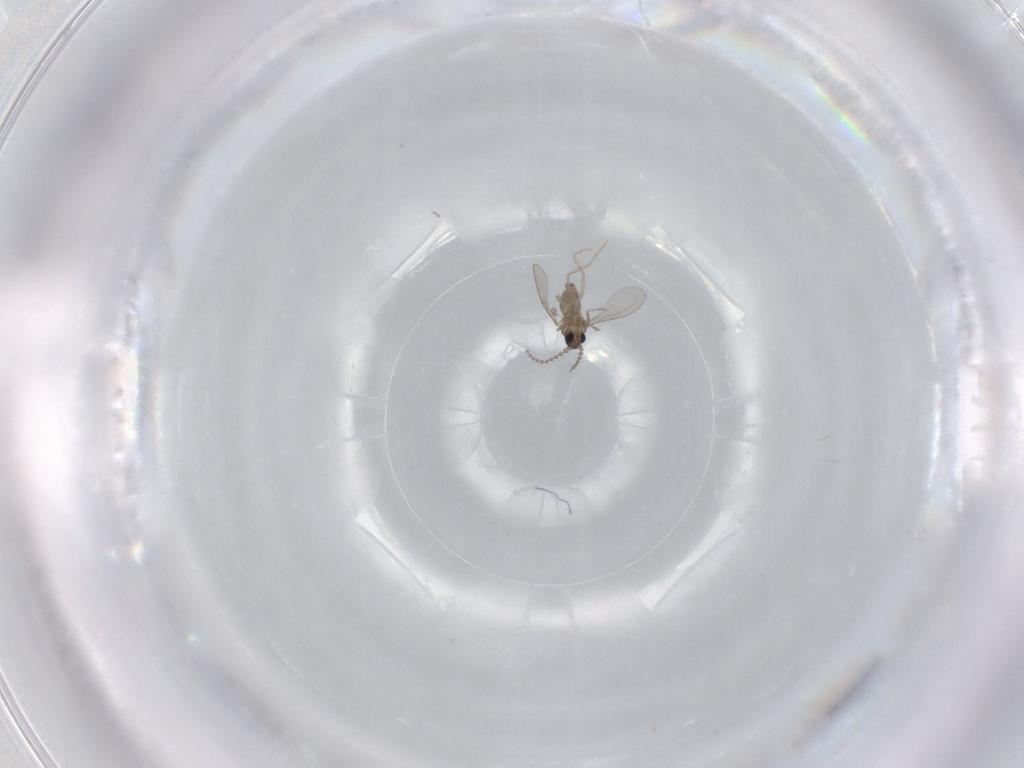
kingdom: Animalia
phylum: Arthropoda
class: Insecta
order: Diptera
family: Cecidomyiidae
